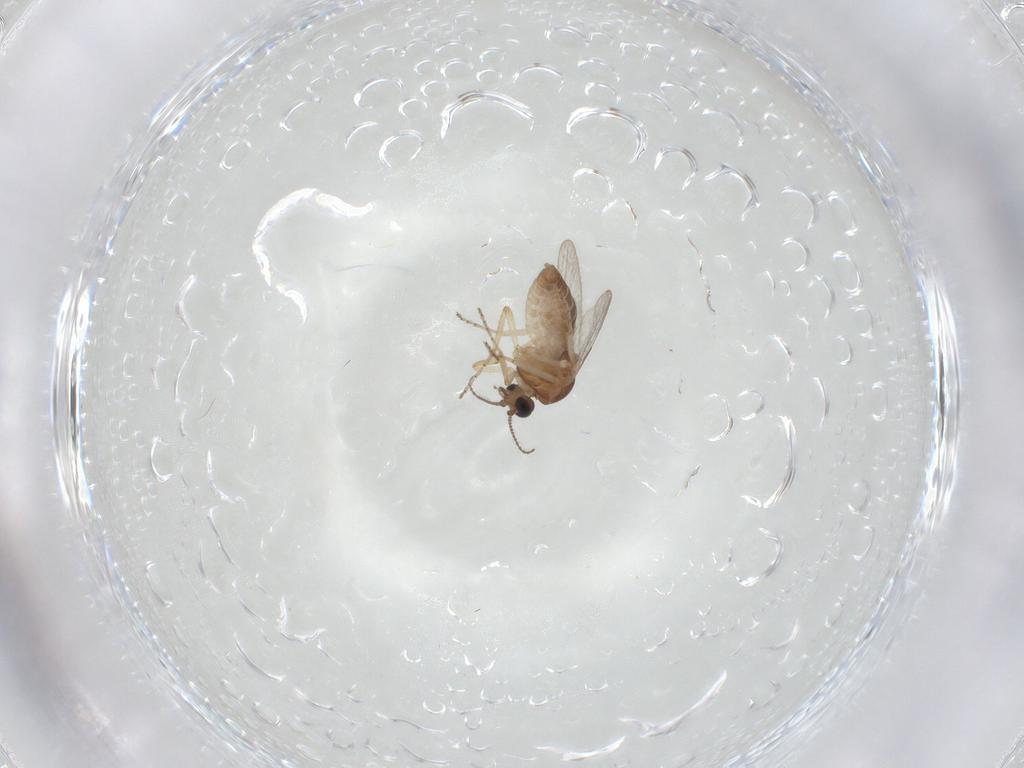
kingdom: Animalia
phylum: Arthropoda
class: Insecta
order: Diptera
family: Ceratopogonidae
